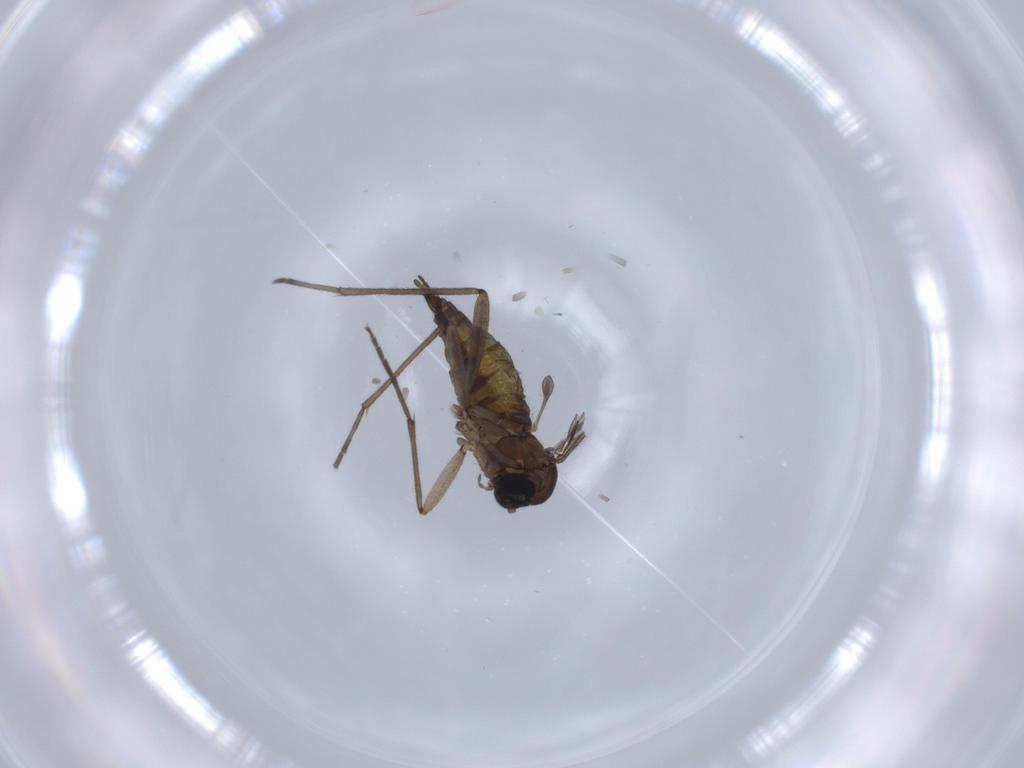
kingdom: Animalia
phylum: Arthropoda
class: Insecta
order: Diptera
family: Sciaridae
